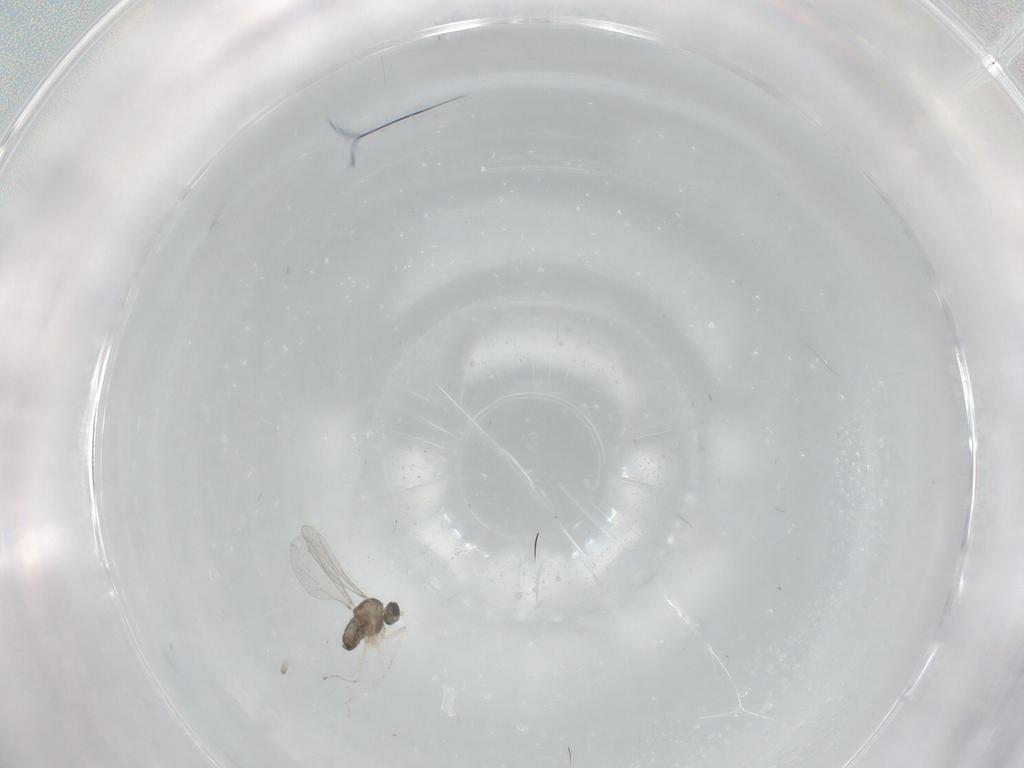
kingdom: Animalia
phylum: Arthropoda
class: Insecta
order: Diptera
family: Cecidomyiidae
